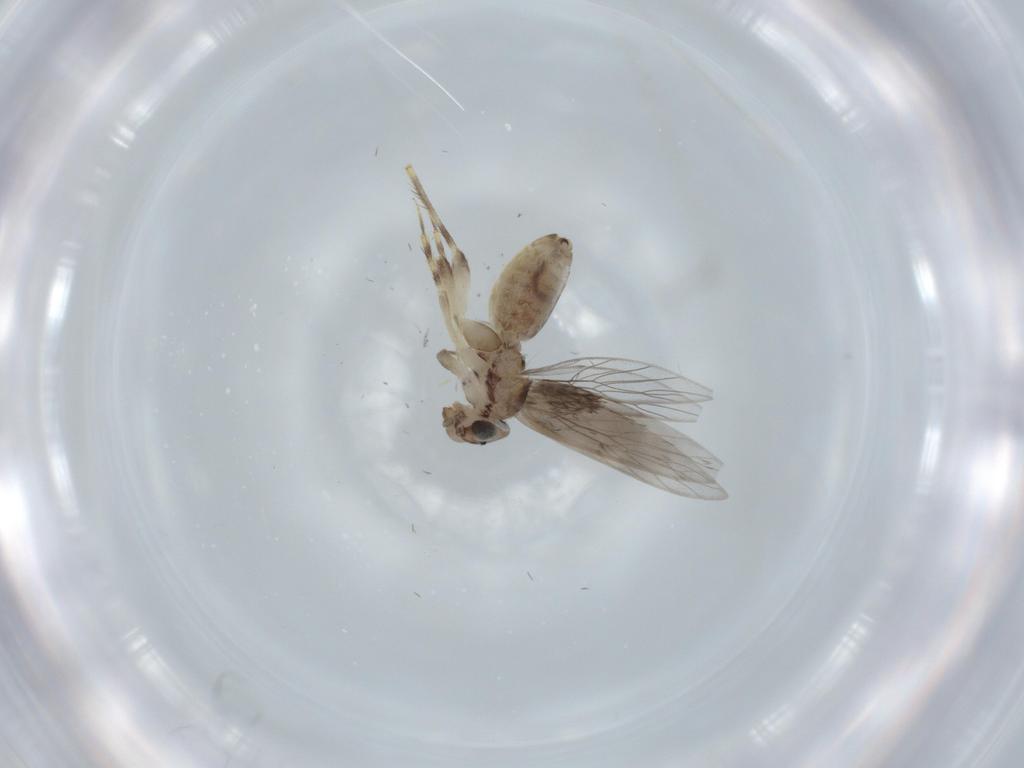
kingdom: Animalia
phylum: Arthropoda
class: Insecta
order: Psocodea
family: Lepidopsocidae
